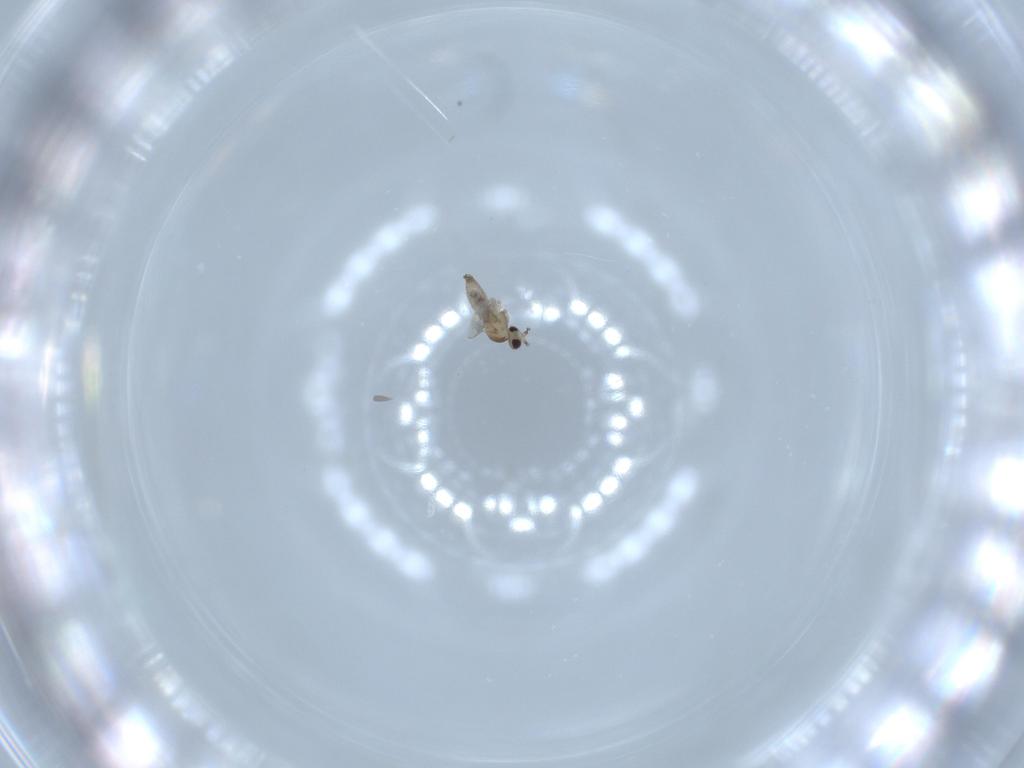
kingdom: Animalia
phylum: Arthropoda
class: Insecta
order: Diptera
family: Cecidomyiidae
